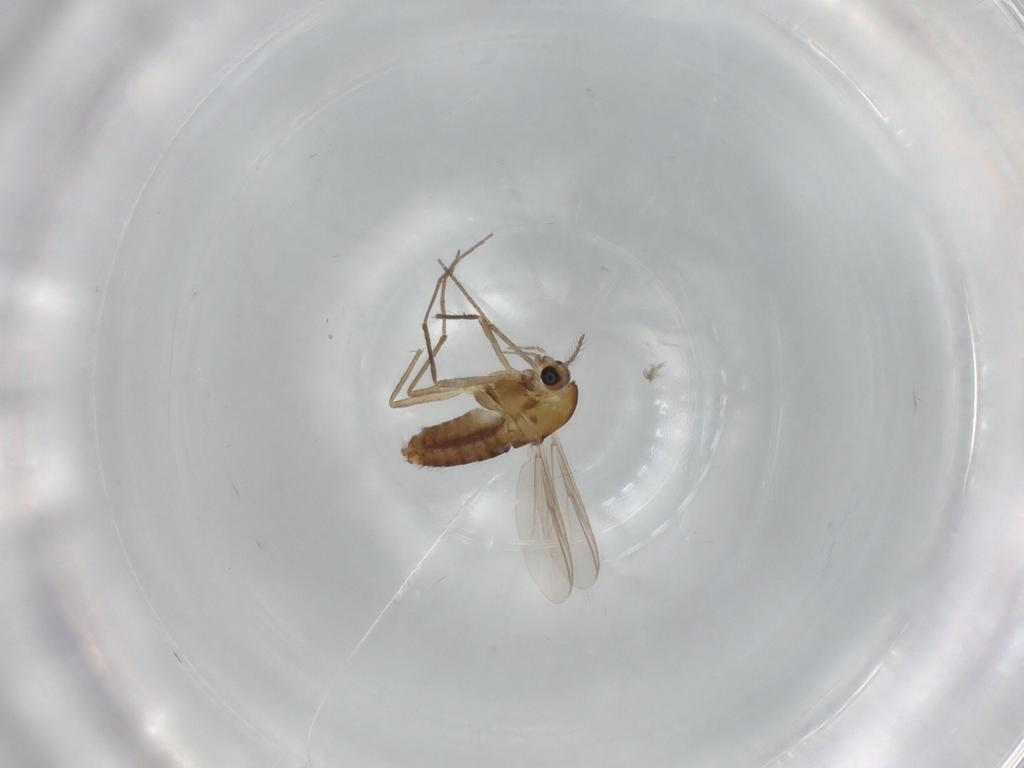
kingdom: Animalia
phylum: Arthropoda
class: Insecta
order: Diptera
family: Chironomidae
